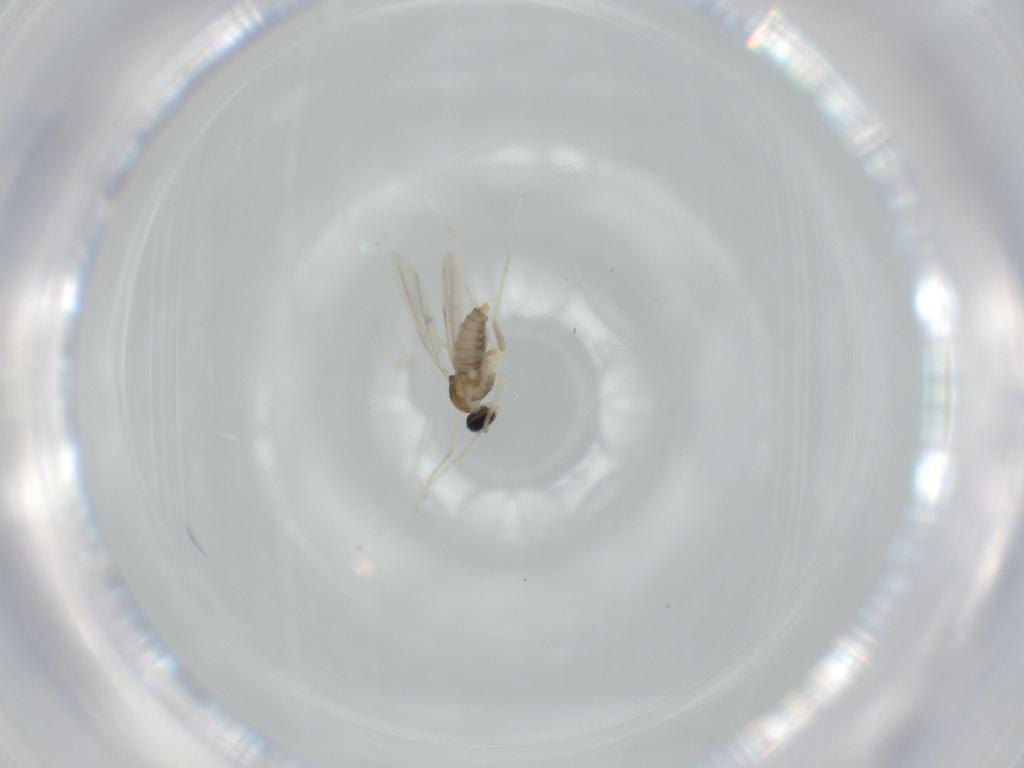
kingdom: Animalia
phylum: Arthropoda
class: Insecta
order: Diptera
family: Cecidomyiidae
